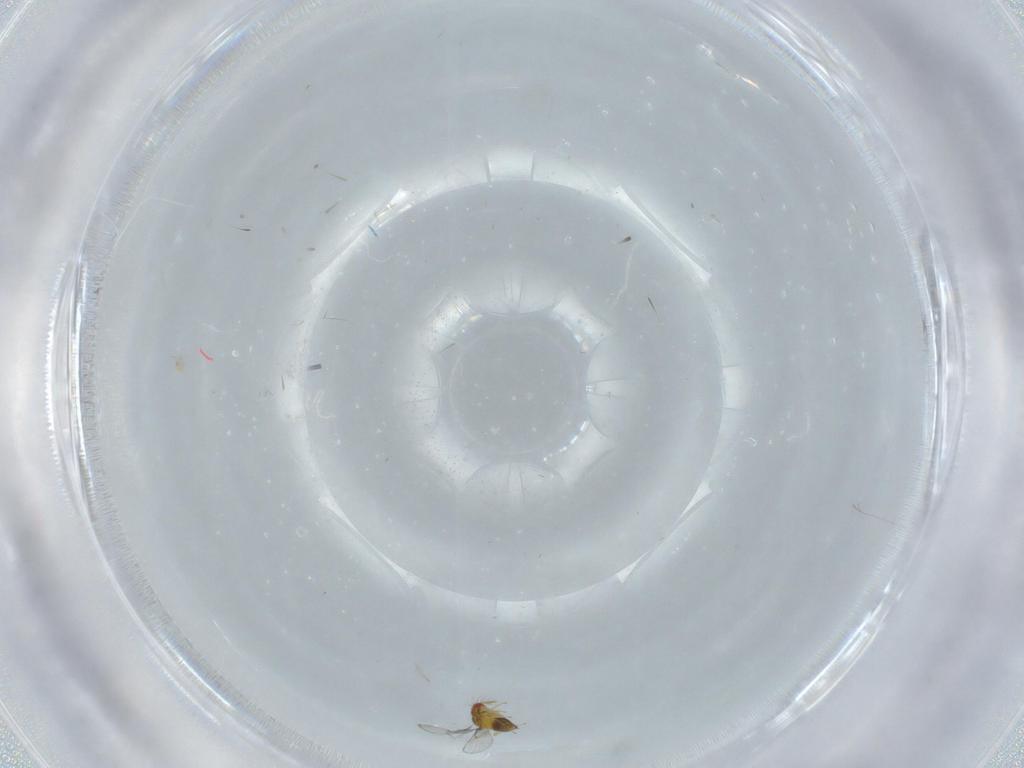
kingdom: Animalia
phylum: Arthropoda
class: Insecta
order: Hymenoptera
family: Trichogrammatidae
